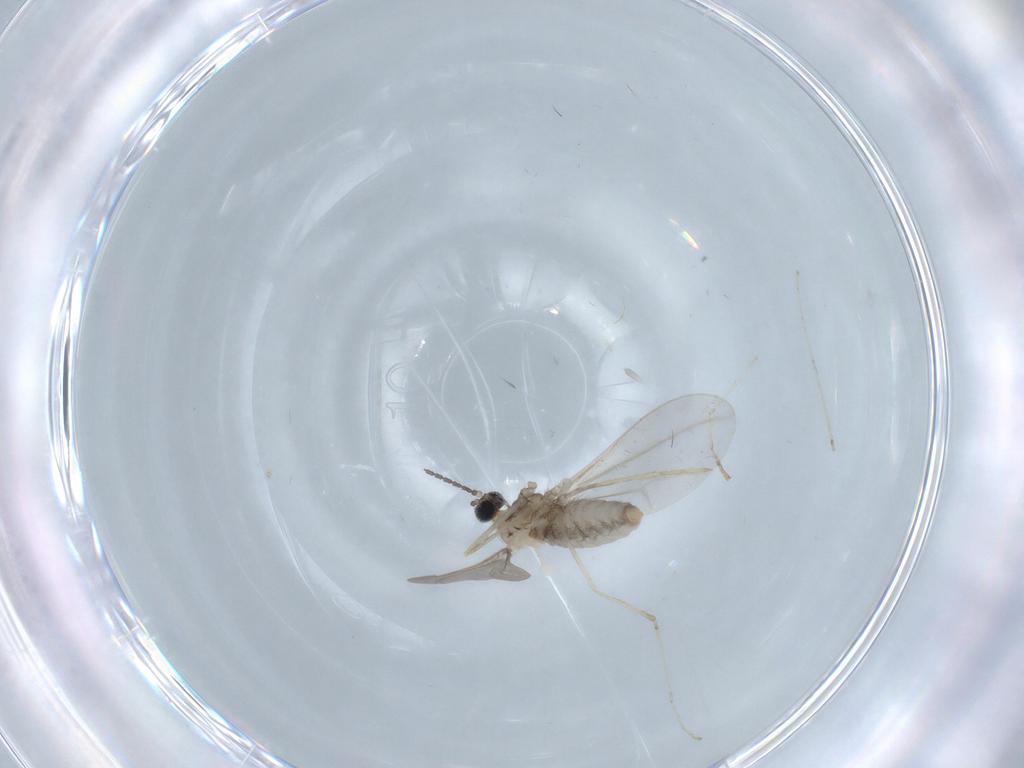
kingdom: Animalia
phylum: Arthropoda
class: Insecta
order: Diptera
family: Cecidomyiidae
